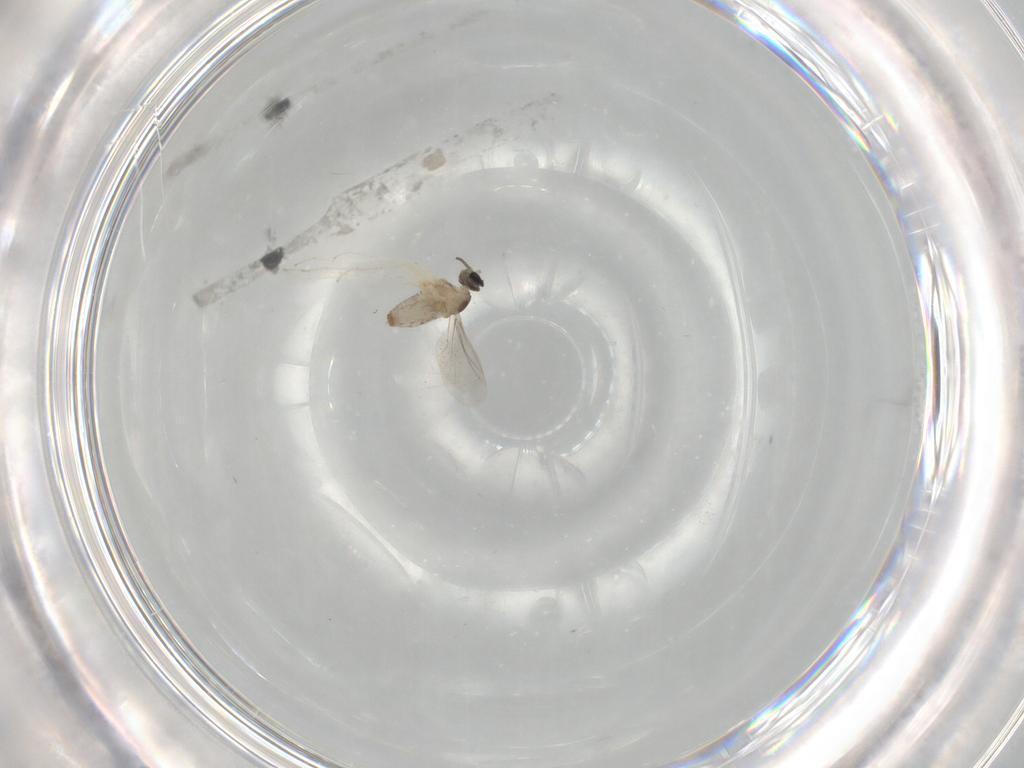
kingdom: Animalia
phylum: Arthropoda
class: Insecta
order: Diptera
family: Cecidomyiidae
